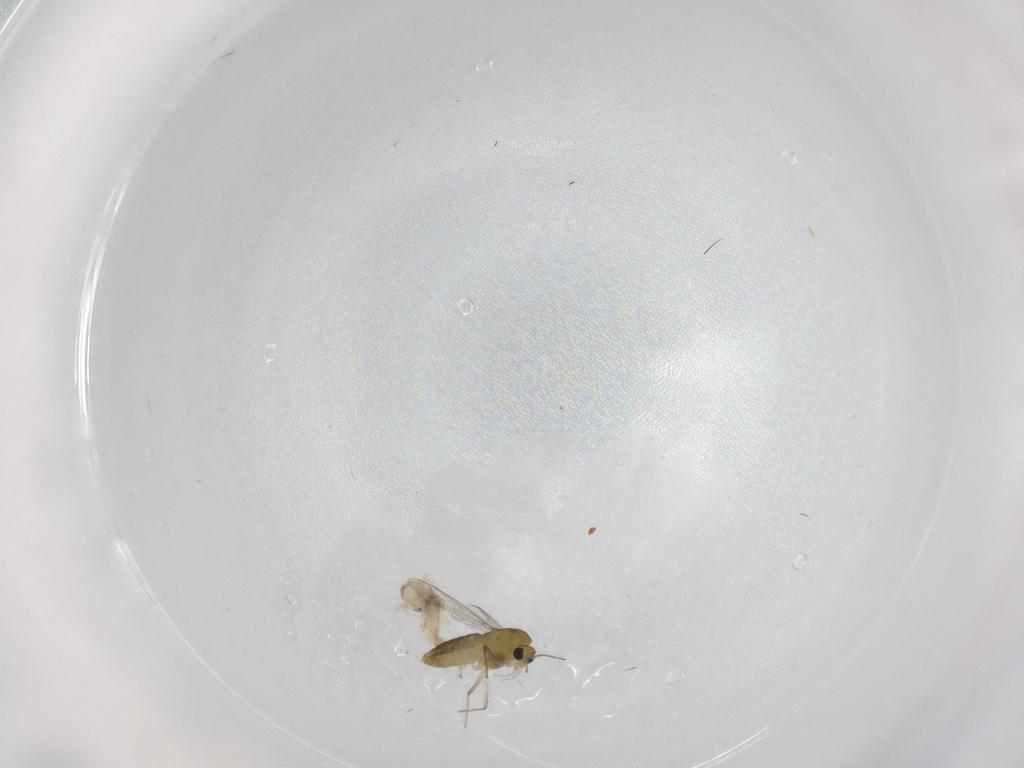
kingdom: Animalia
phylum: Arthropoda
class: Insecta
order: Diptera
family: Chironomidae
